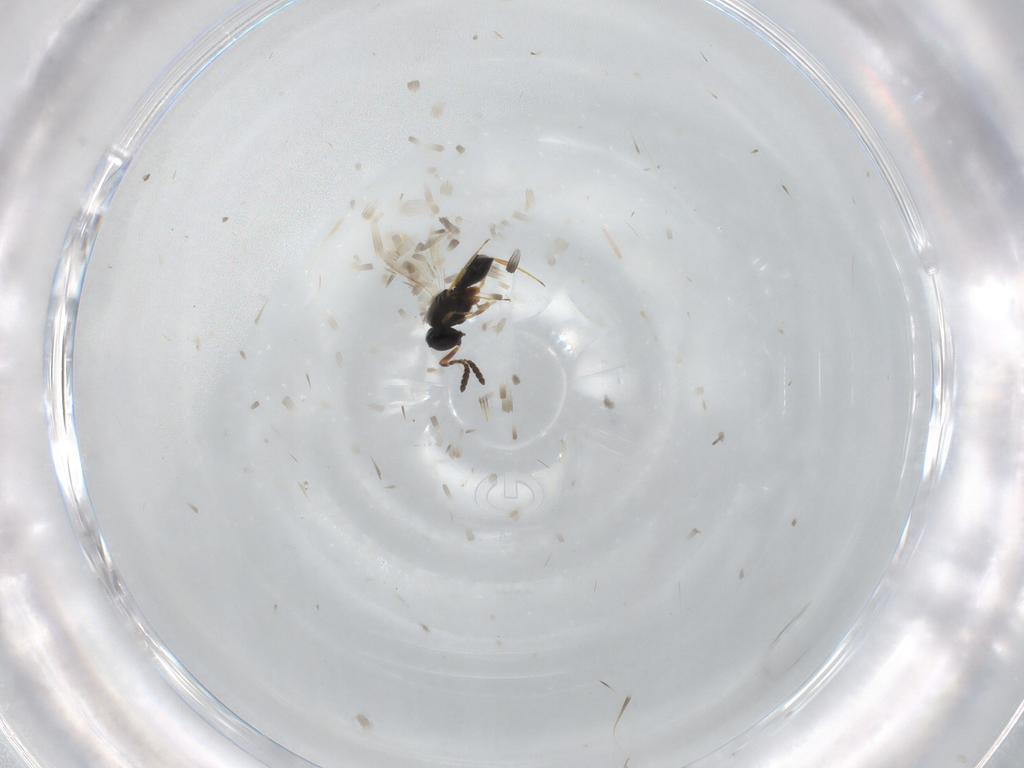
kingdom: Animalia
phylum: Arthropoda
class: Insecta
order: Hymenoptera
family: Scelionidae
